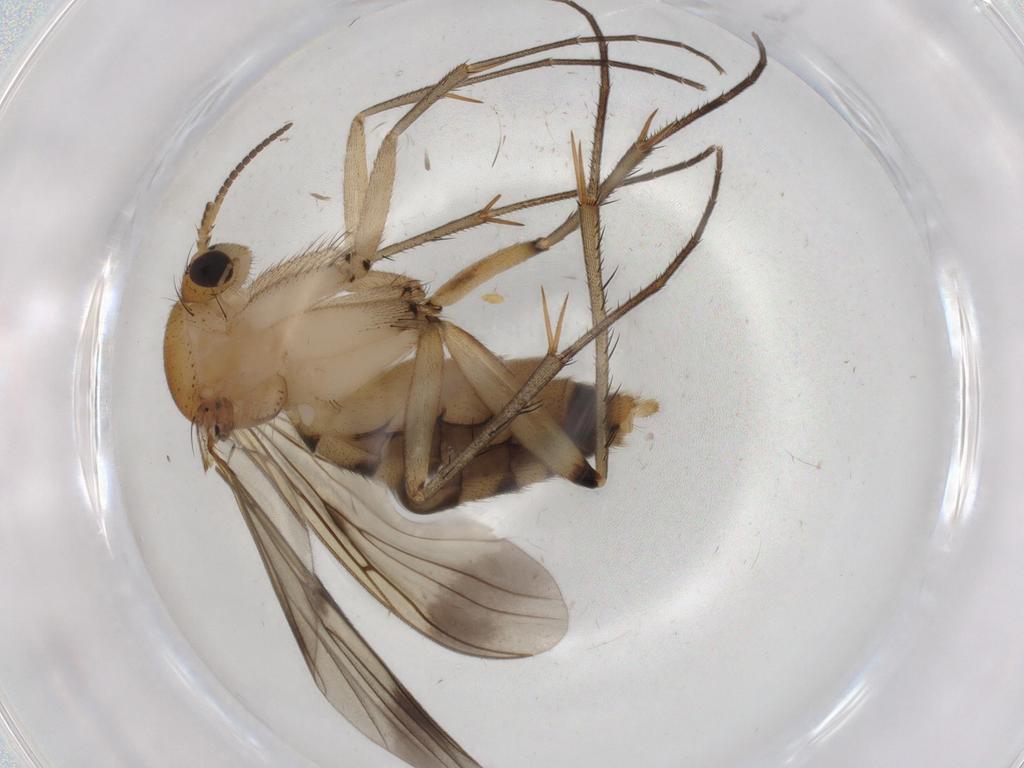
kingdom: Animalia
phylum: Arthropoda
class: Insecta
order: Diptera
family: Mycetophilidae
